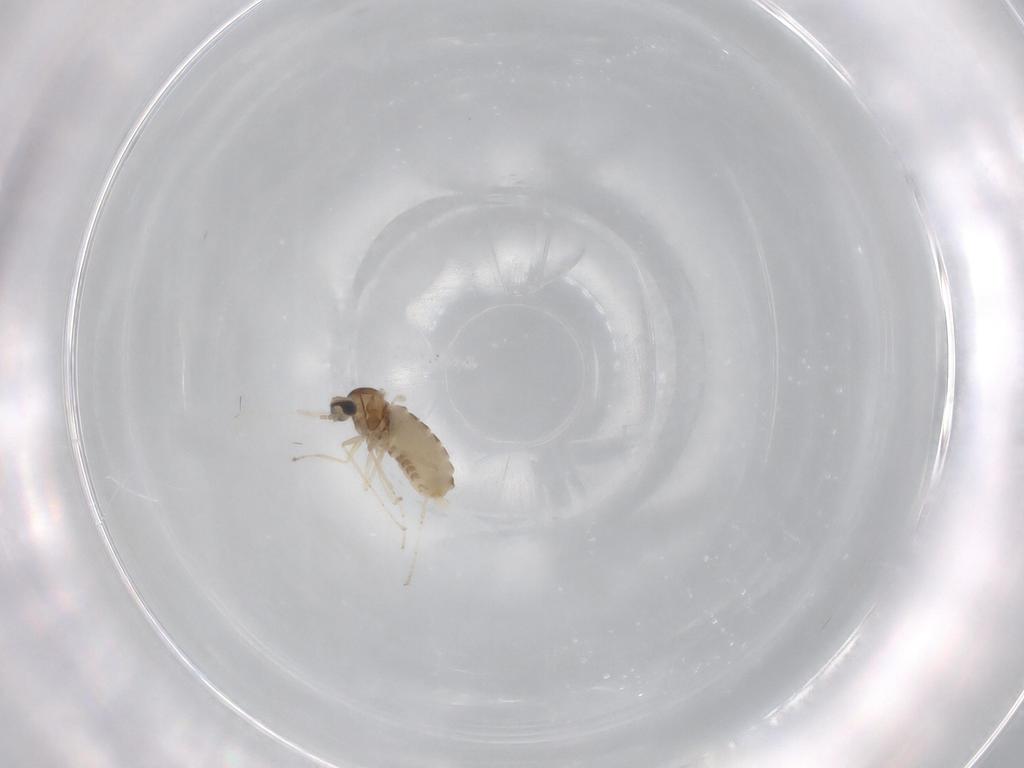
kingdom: Animalia
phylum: Arthropoda
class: Insecta
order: Diptera
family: Cecidomyiidae
